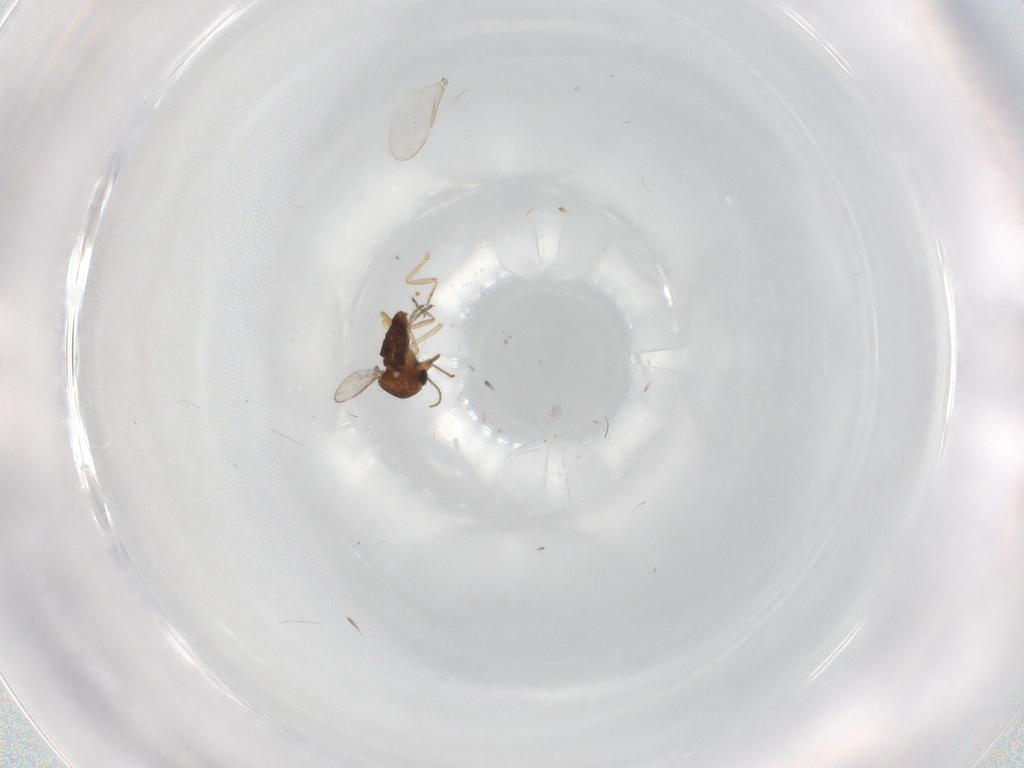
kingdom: Animalia
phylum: Arthropoda
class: Insecta
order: Diptera
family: Ceratopogonidae
